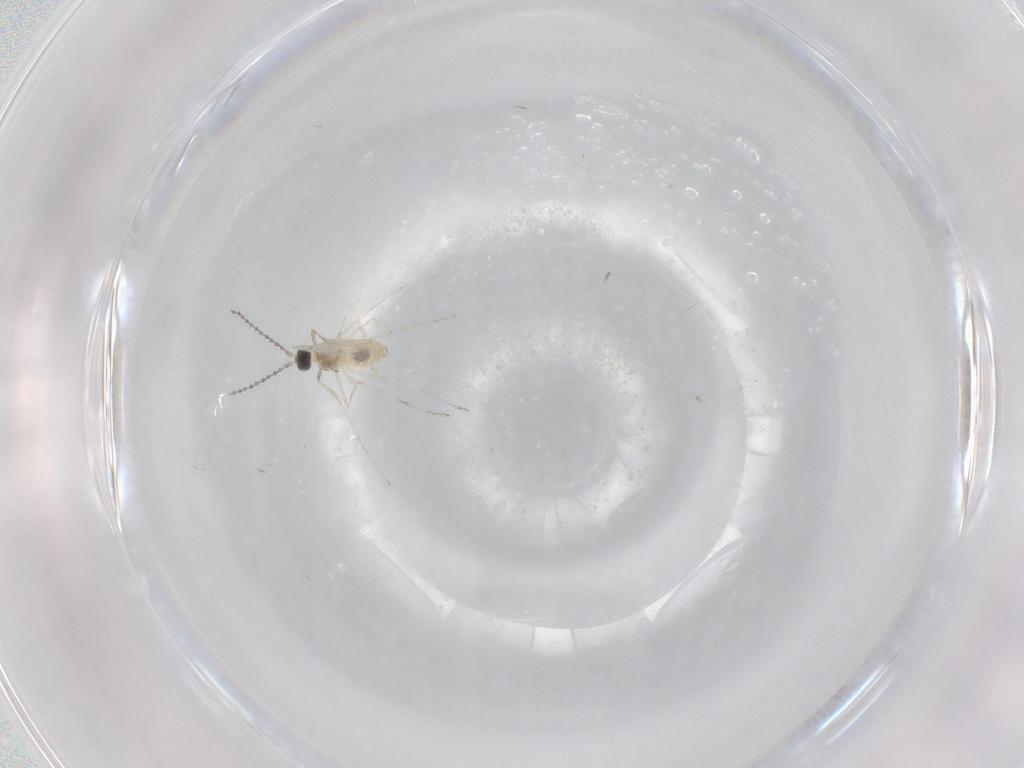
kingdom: Animalia
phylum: Arthropoda
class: Insecta
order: Diptera
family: Cecidomyiidae
